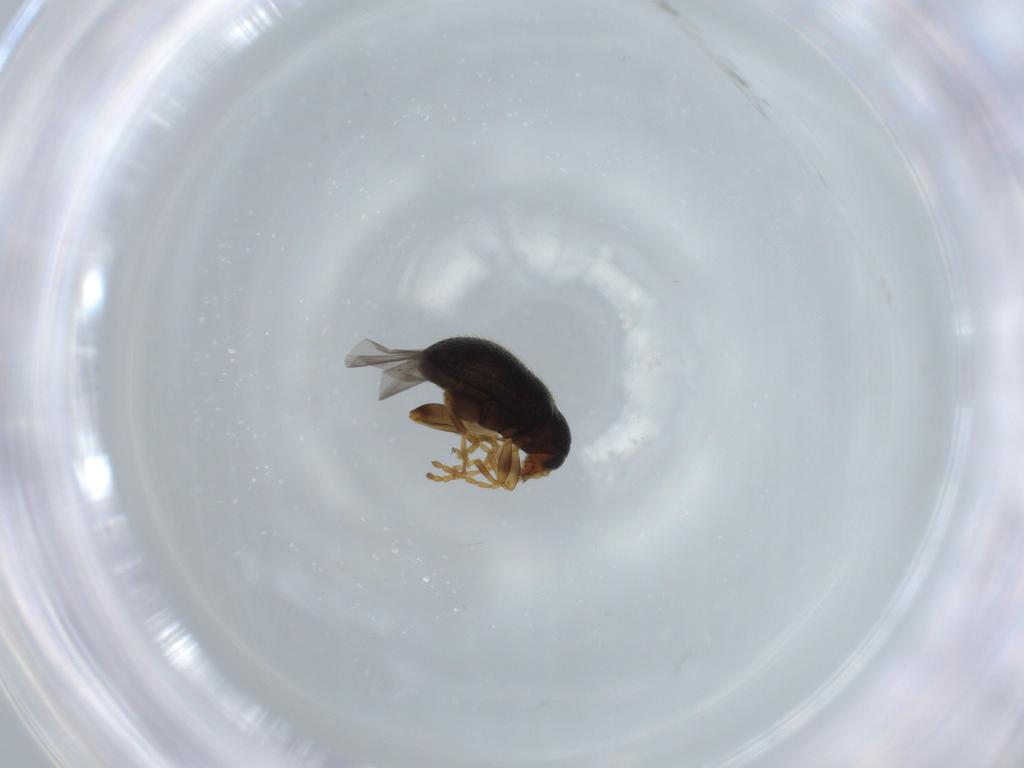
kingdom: Animalia
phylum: Arthropoda
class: Insecta
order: Coleoptera
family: Chrysomelidae
